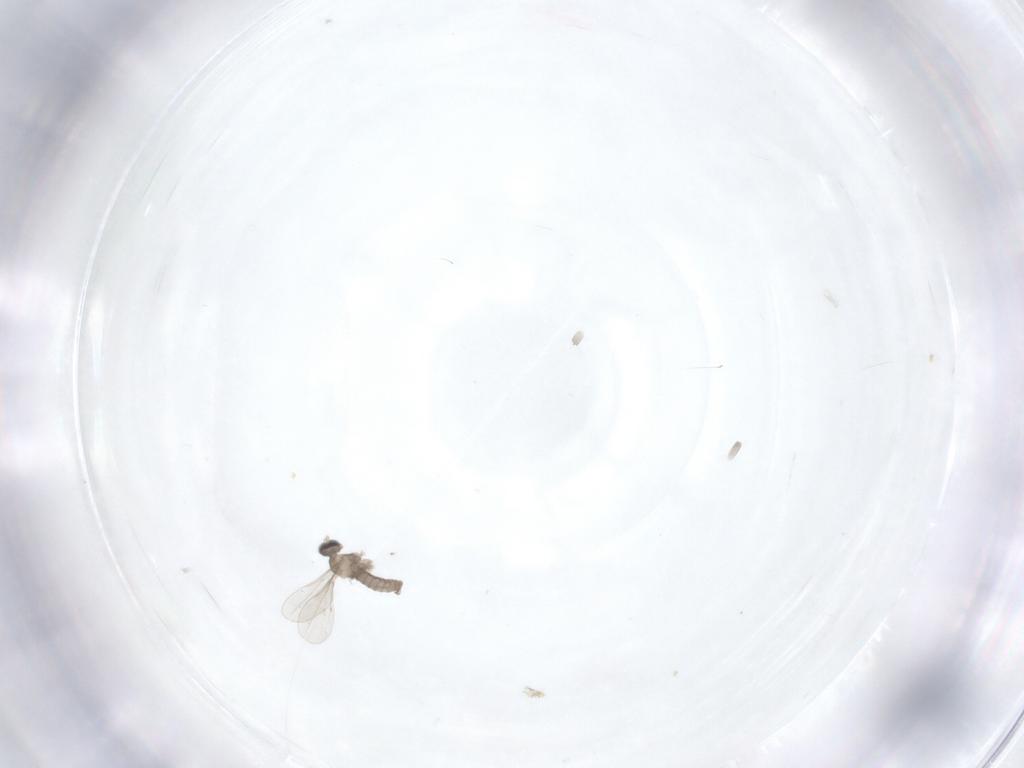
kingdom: Animalia
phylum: Arthropoda
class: Insecta
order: Diptera
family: Cecidomyiidae
